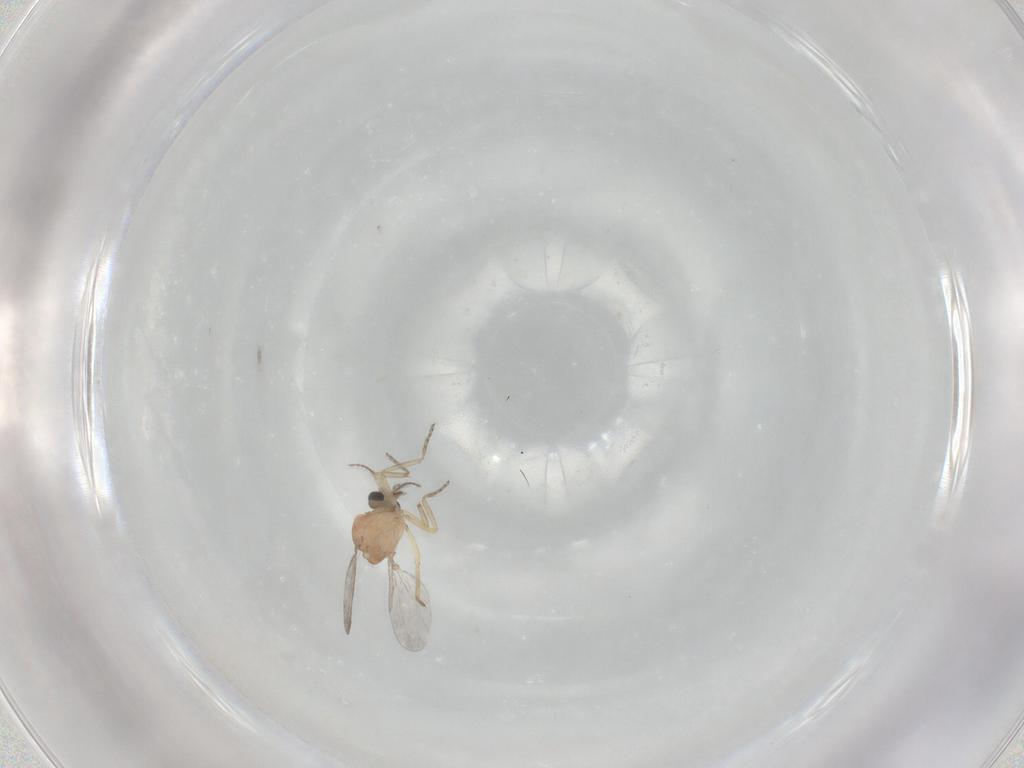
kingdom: Animalia
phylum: Arthropoda
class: Insecta
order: Diptera
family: Ceratopogonidae
